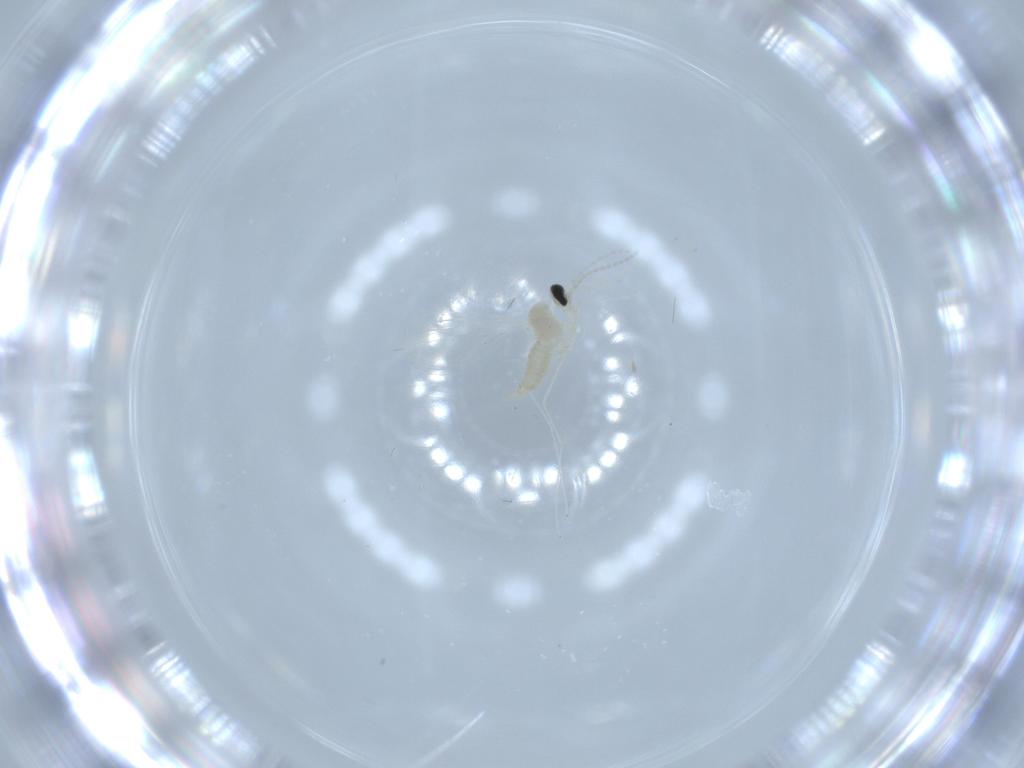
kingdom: Animalia
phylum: Arthropoda
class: Insecta
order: Diptera
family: Cecidomyiidae
